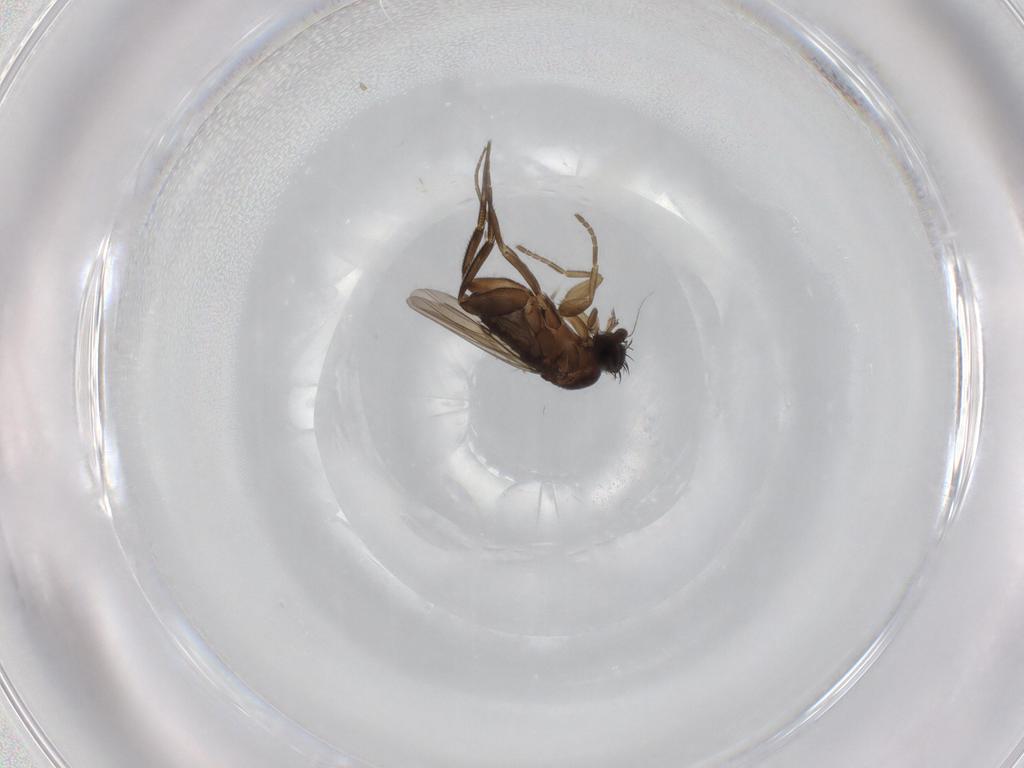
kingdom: Animalia
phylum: Arthropoda
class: Insecta
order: Diptera
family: Phoridae
